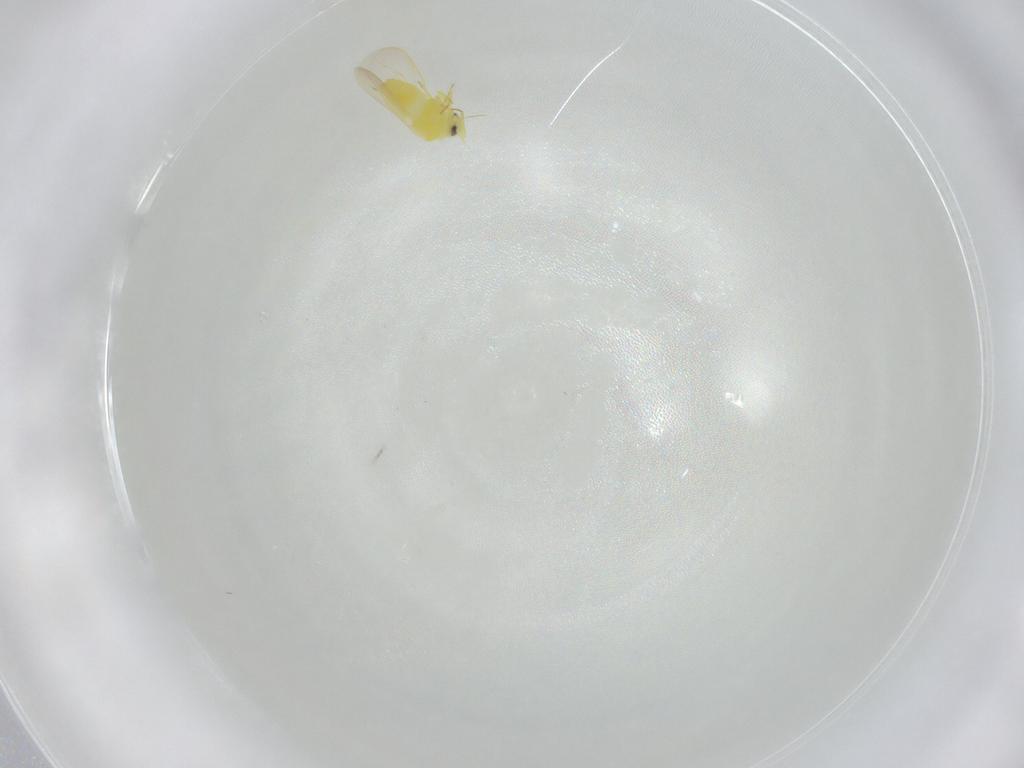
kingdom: Animalia
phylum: Arthropoda
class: Insecta
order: Hemiptera
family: Aleyrodidae
